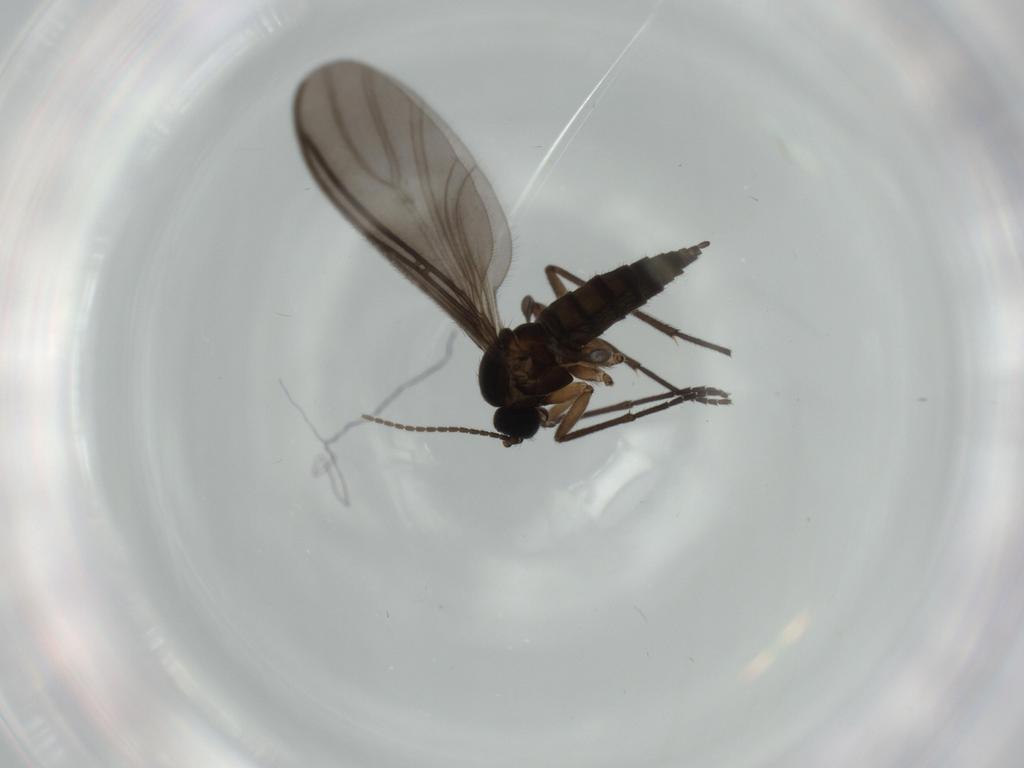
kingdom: Animalia
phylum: Arthropoda
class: Insecta
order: Diptera
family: Sciaridae
